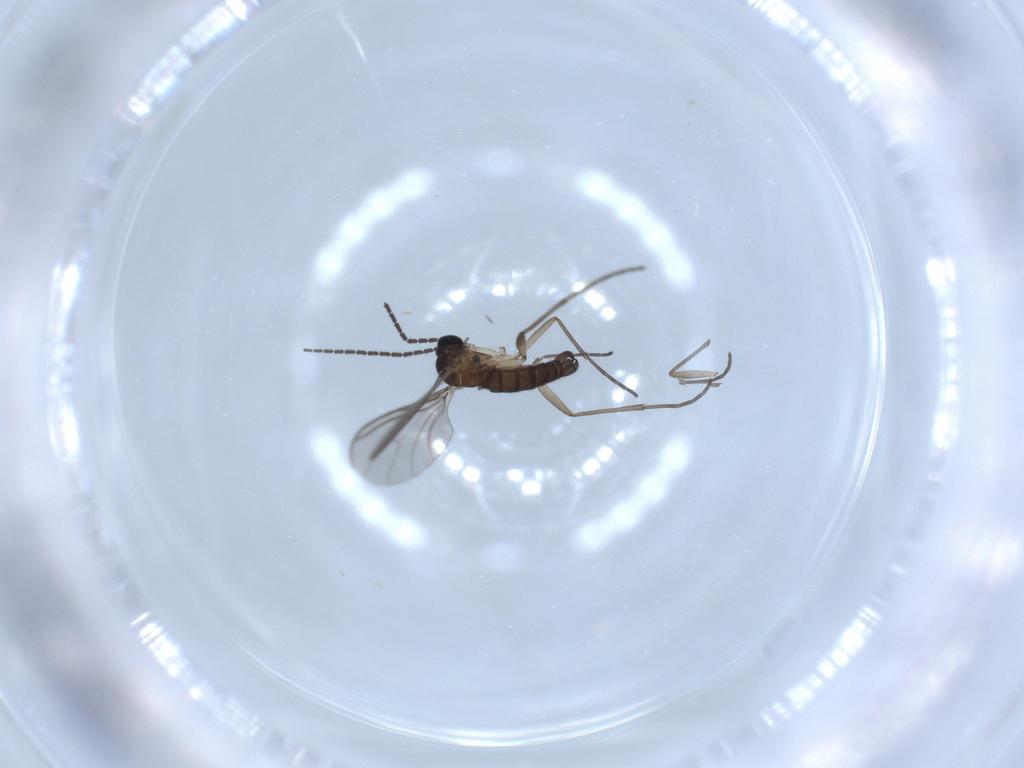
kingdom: Animalia
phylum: Arthropoda
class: Insecta
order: Diptera
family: Sciaridae
